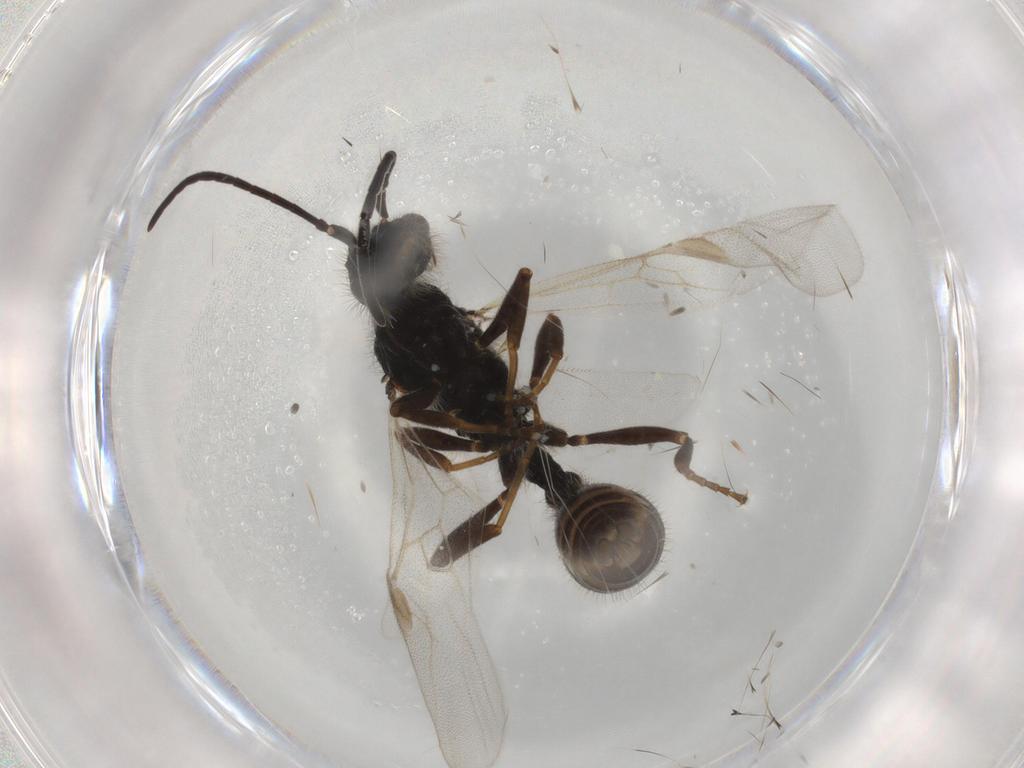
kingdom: Animalia
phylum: Arthropoda
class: Insecta
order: Hymenoptera
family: Formicidae
